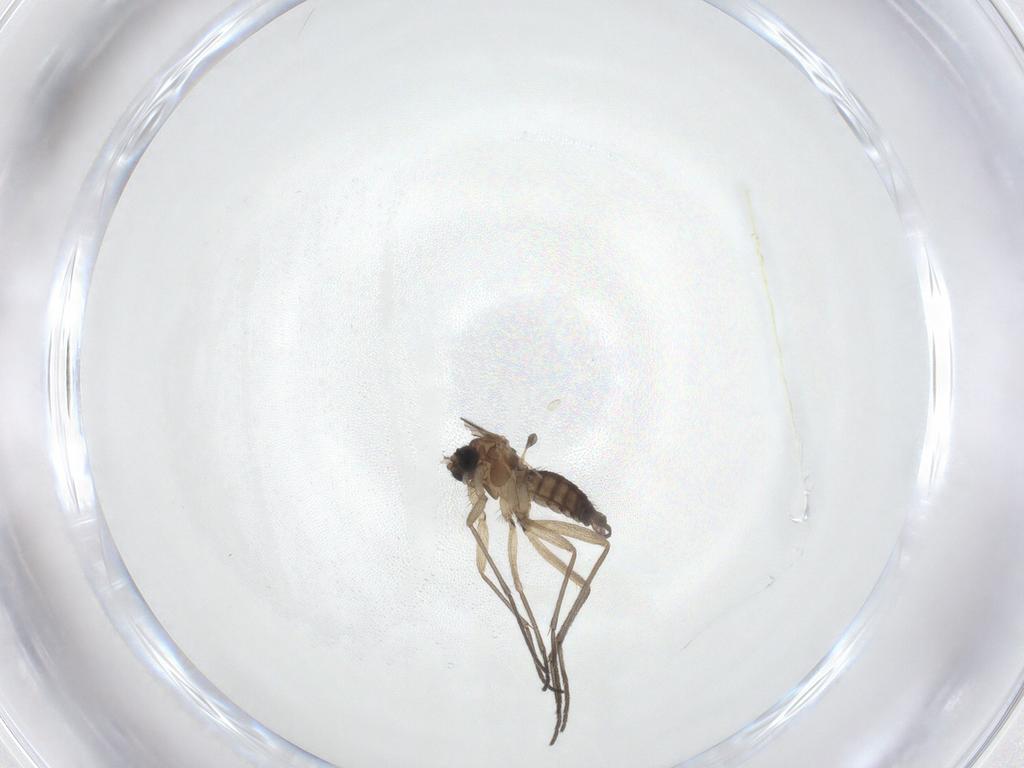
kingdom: Animalia
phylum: Arthropoda
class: Insecta
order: Diptera
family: Sciaridae
